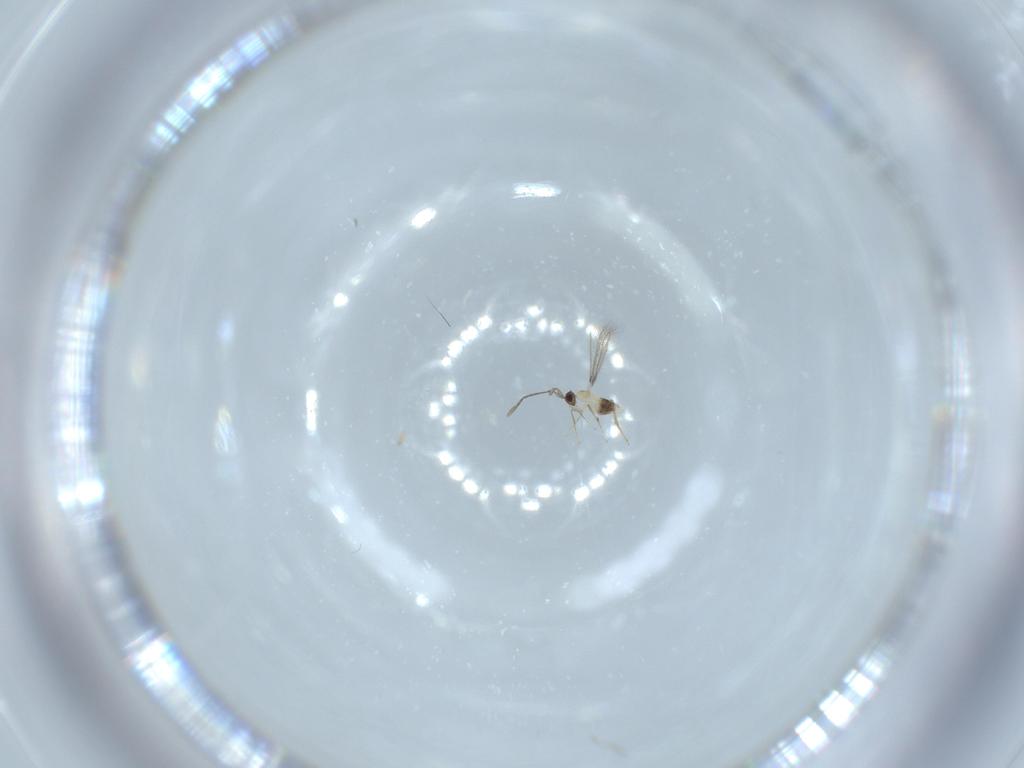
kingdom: Animalia
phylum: Arthropoda
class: Insecta
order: Hymenoptera
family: Mymaridae
